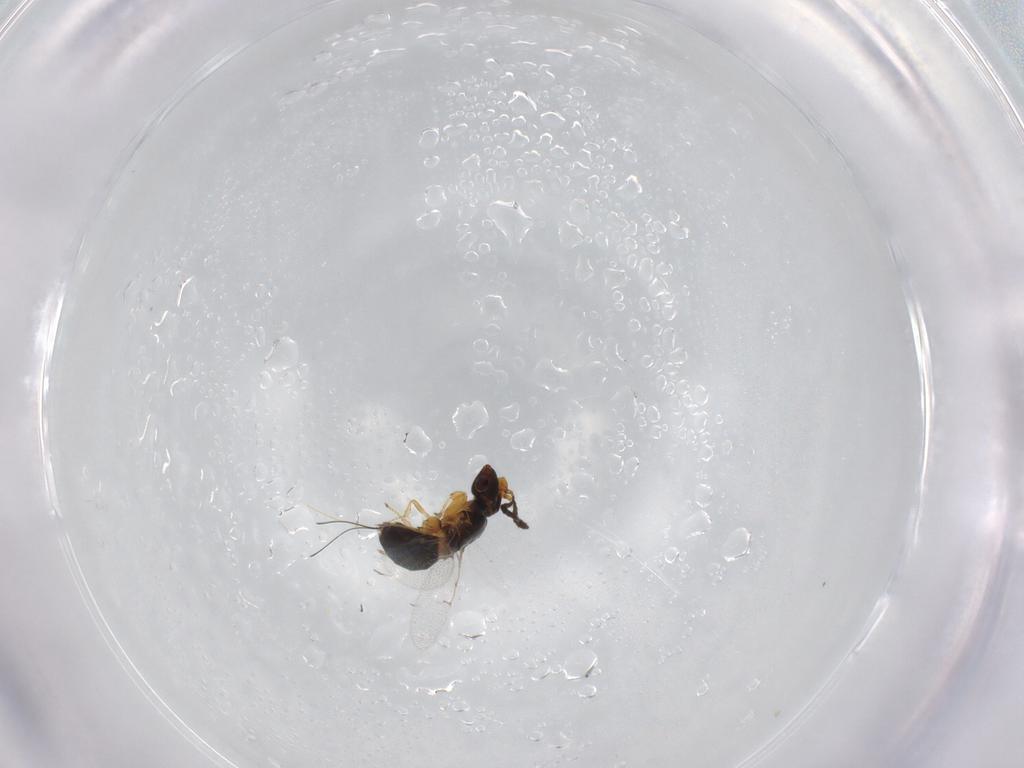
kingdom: Animalia
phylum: Arthropoda
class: Insecta
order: Hymenoptera
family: Agaonidae
